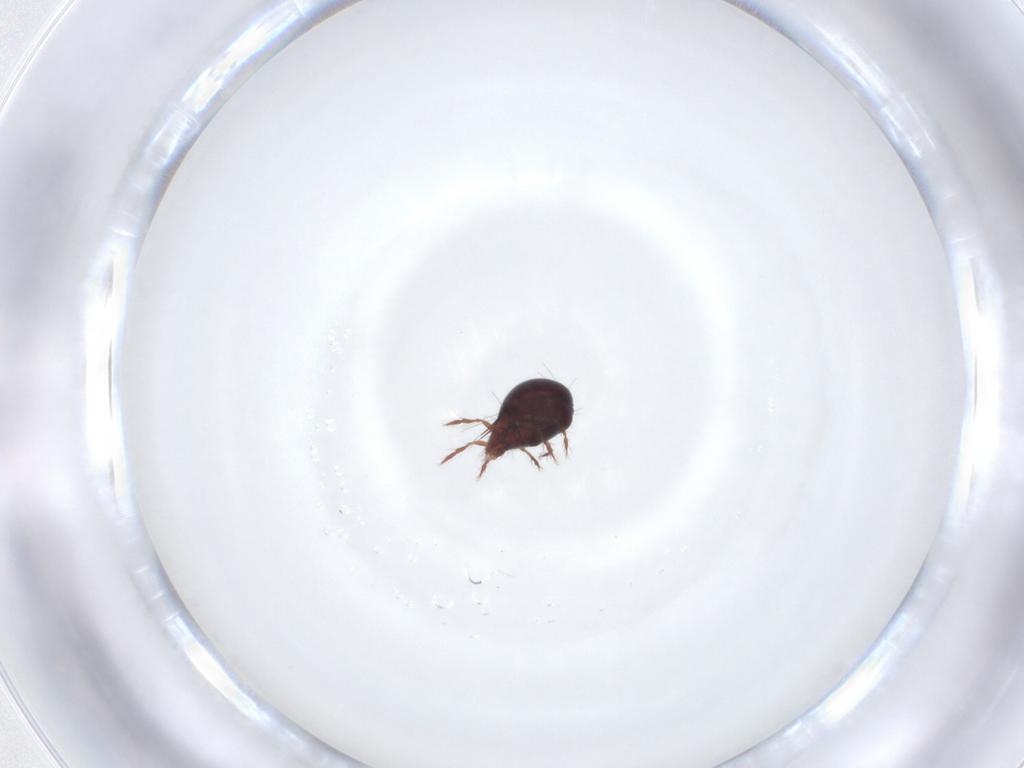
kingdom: Animalia
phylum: Arthropoda
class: Arachnida
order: Sarcoptiformes
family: Ceratoppiidae
